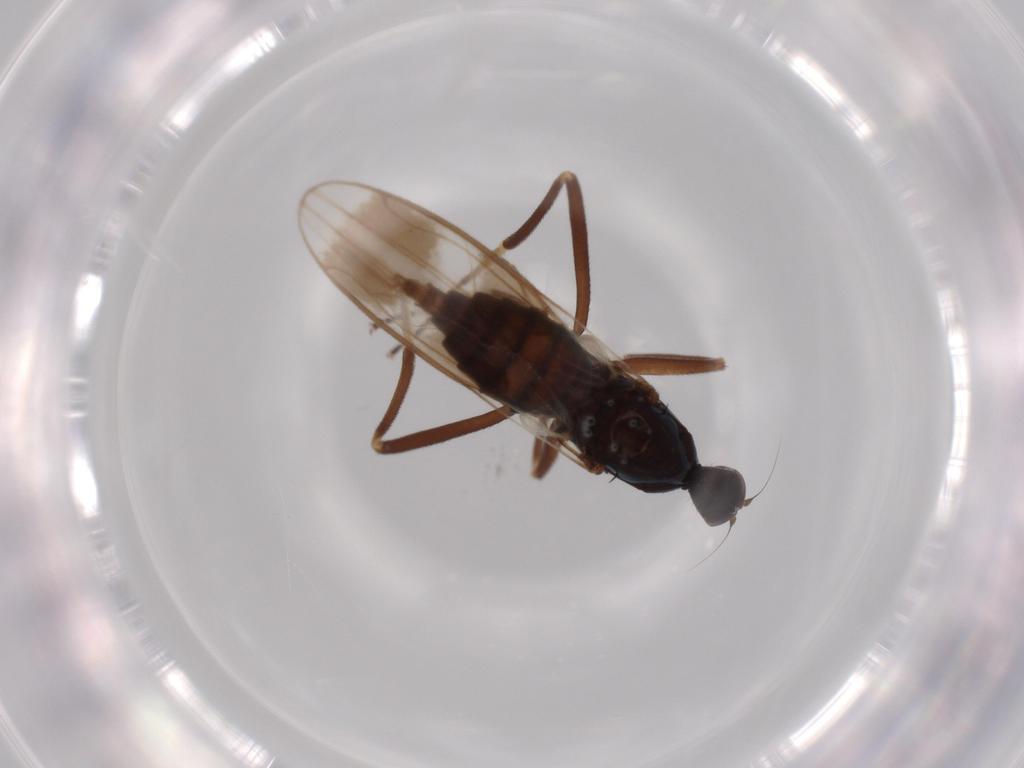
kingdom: Animalia
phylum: Arthropoda
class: Insecta
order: Diptera
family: Hybotidae
